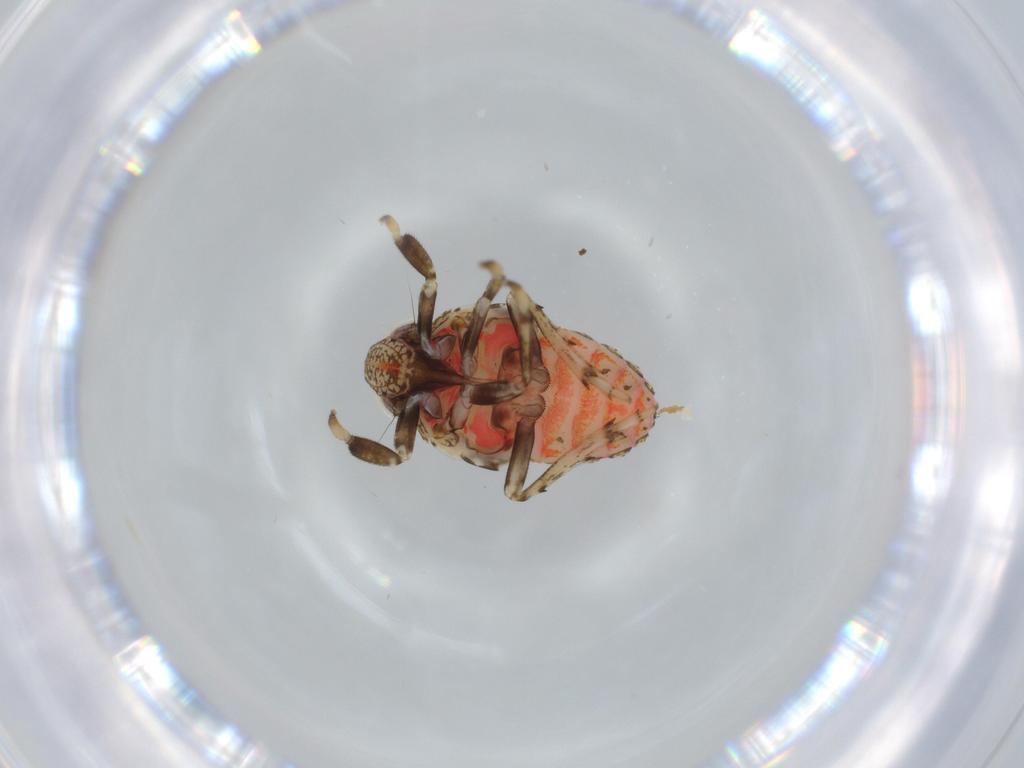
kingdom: Animalia
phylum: Arthropoda
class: Insecta
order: Hemiptera
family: Issidae
